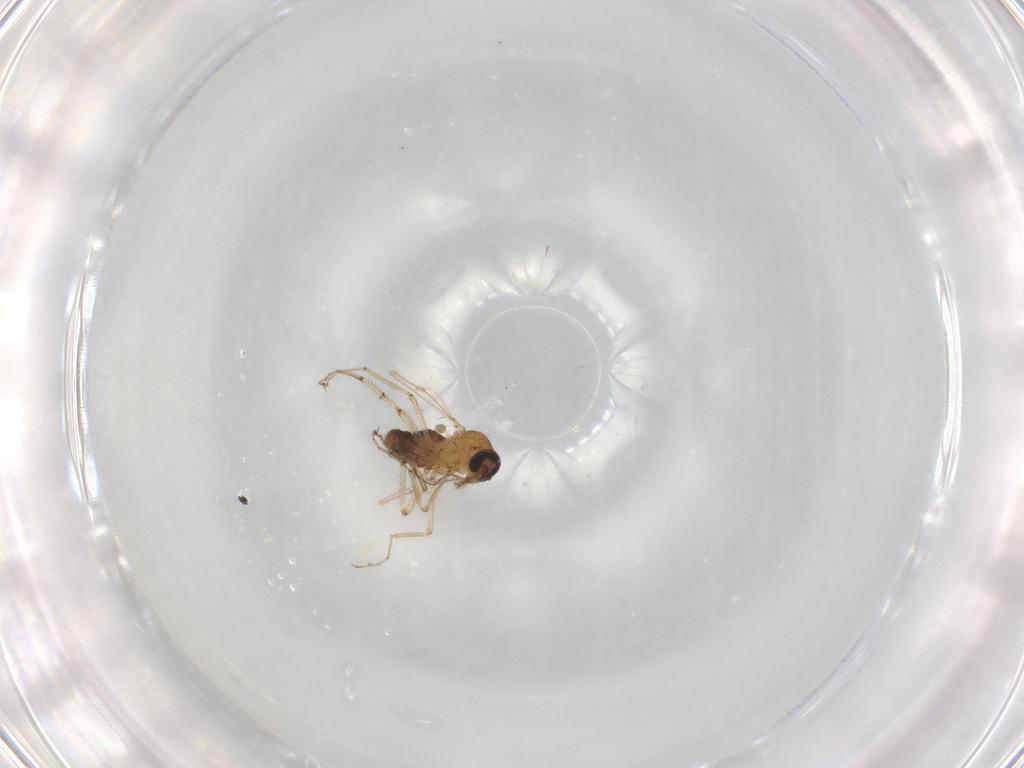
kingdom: Animalia
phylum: Arthropoda
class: Insecta
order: Diptera
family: Ceratopogonidae
